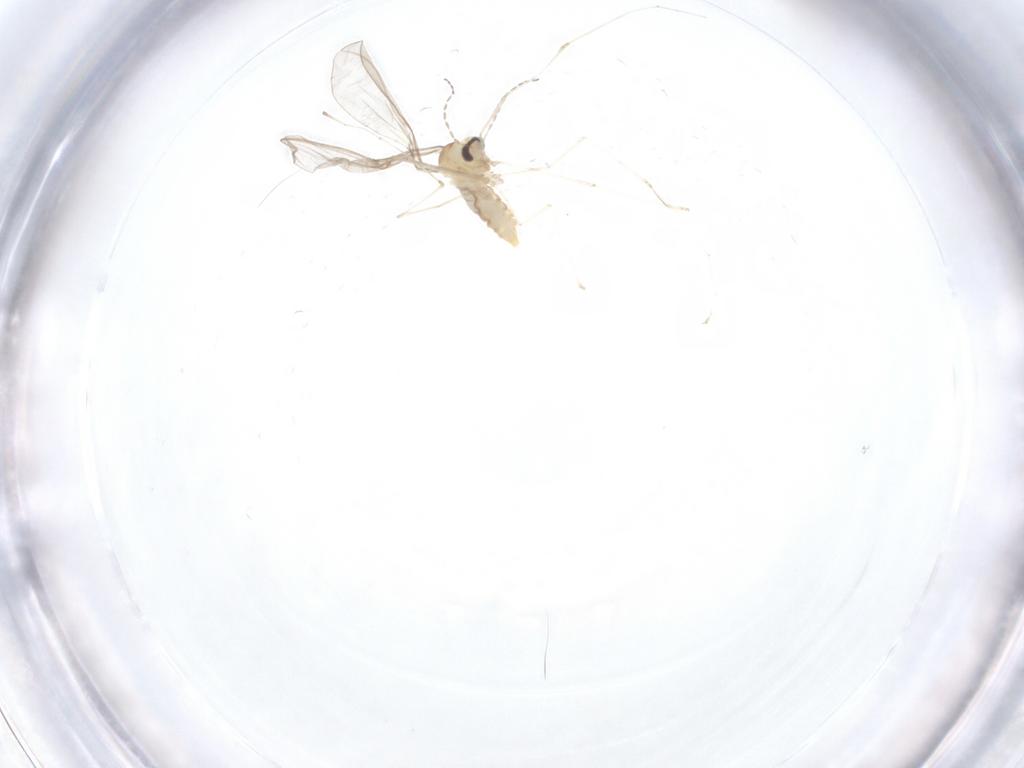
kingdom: Animalia
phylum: Arthropoda
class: Insecta
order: Diptera
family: Cecidomyiidae
